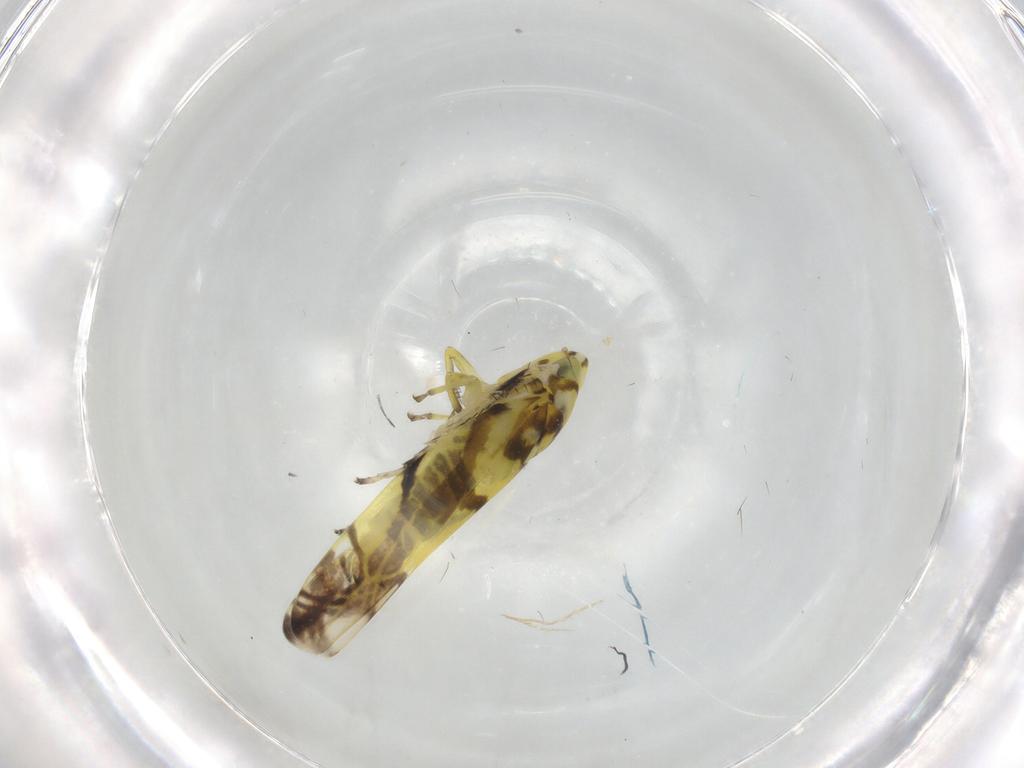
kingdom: Animalia
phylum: Arthropoda
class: Insecta
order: Hemiptera
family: Cicadellidae
